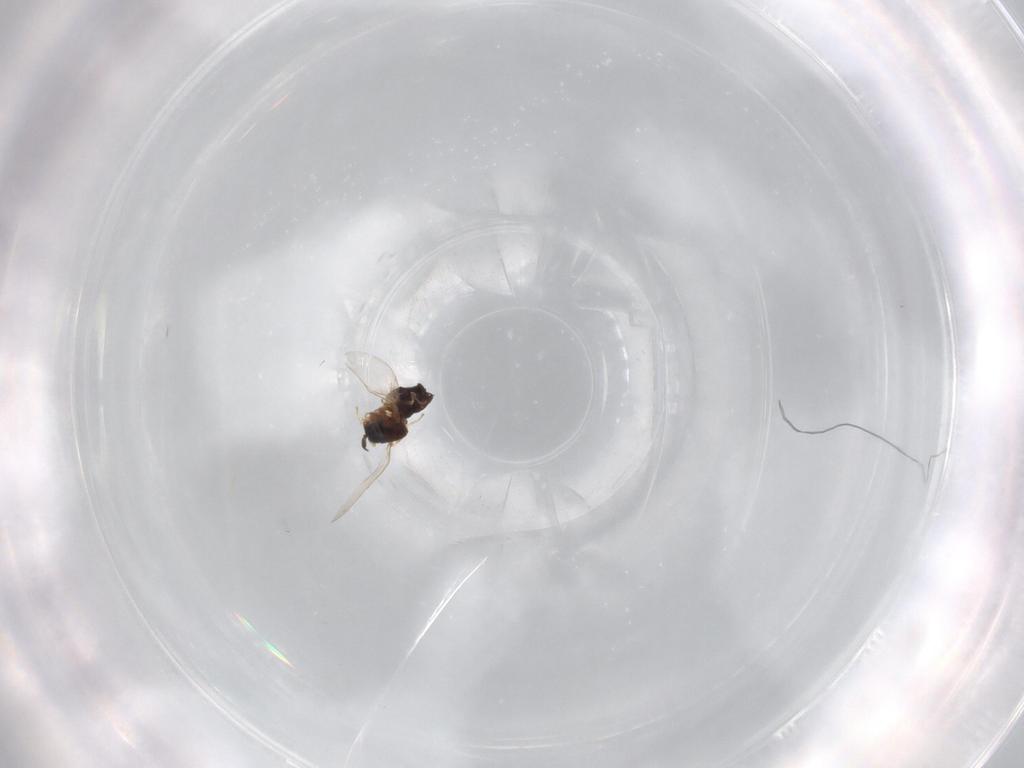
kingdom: Animalia
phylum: Arthropoda
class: Insecta
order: Diptera
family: Scatopsidae
